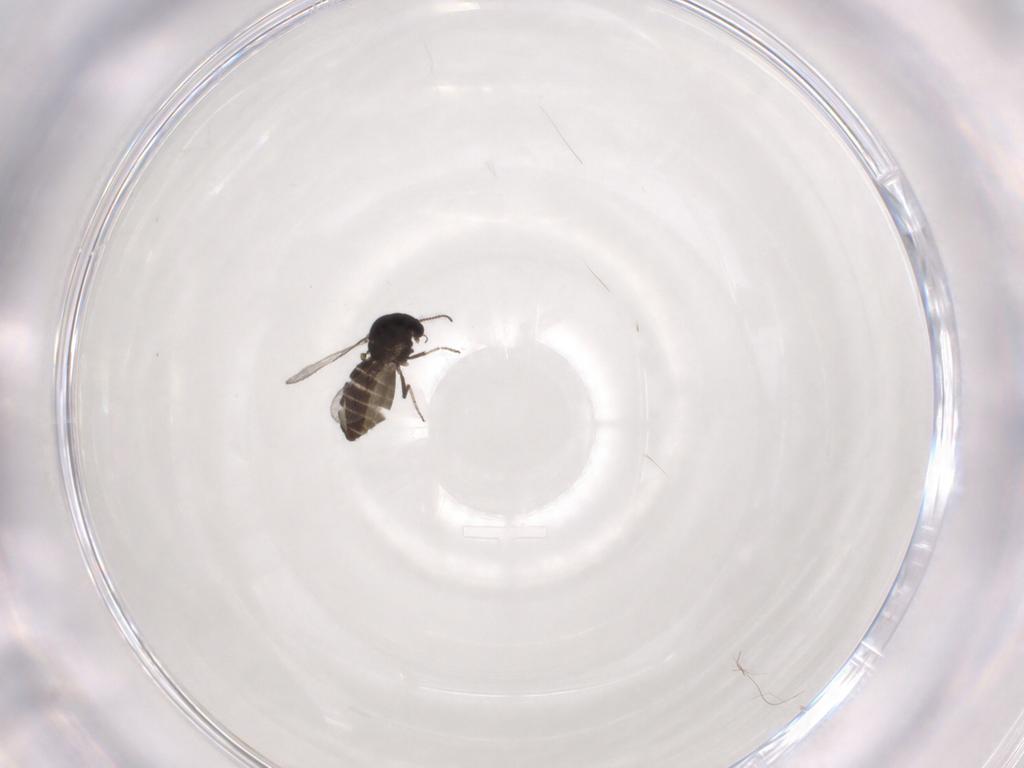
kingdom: Animalia
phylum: Arthropoda
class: Insecta
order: Diptera
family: Ceratopogonidae
